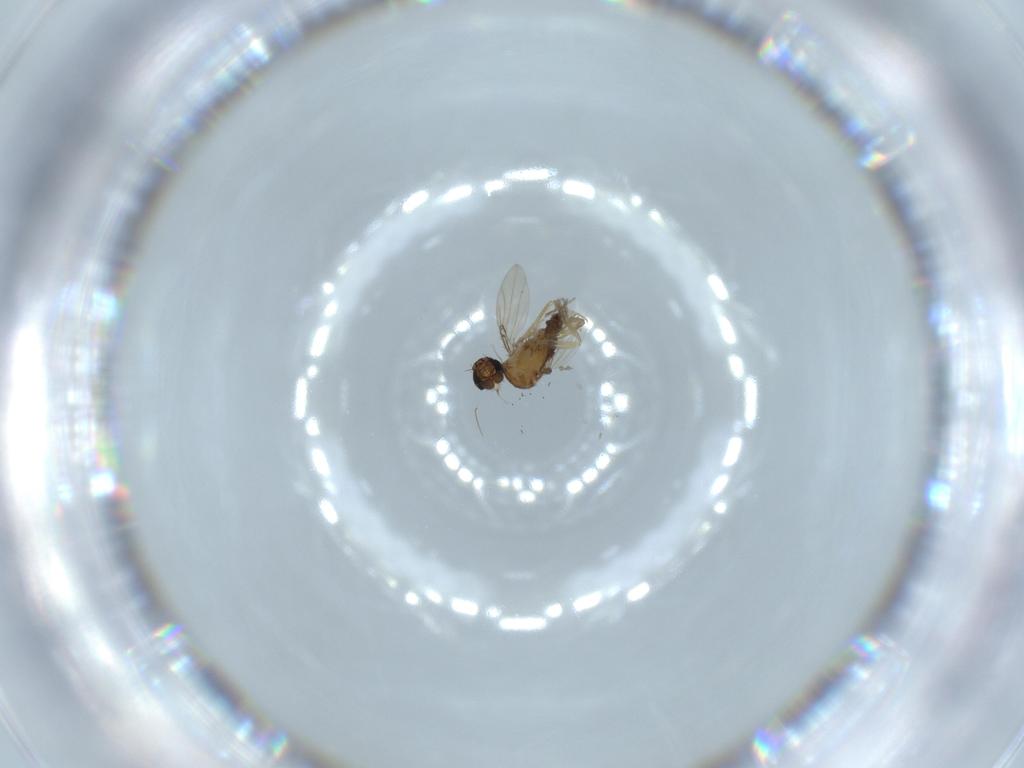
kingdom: Animalia
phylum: Arthropoda
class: Insecta
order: Diptera
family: Phoridae
